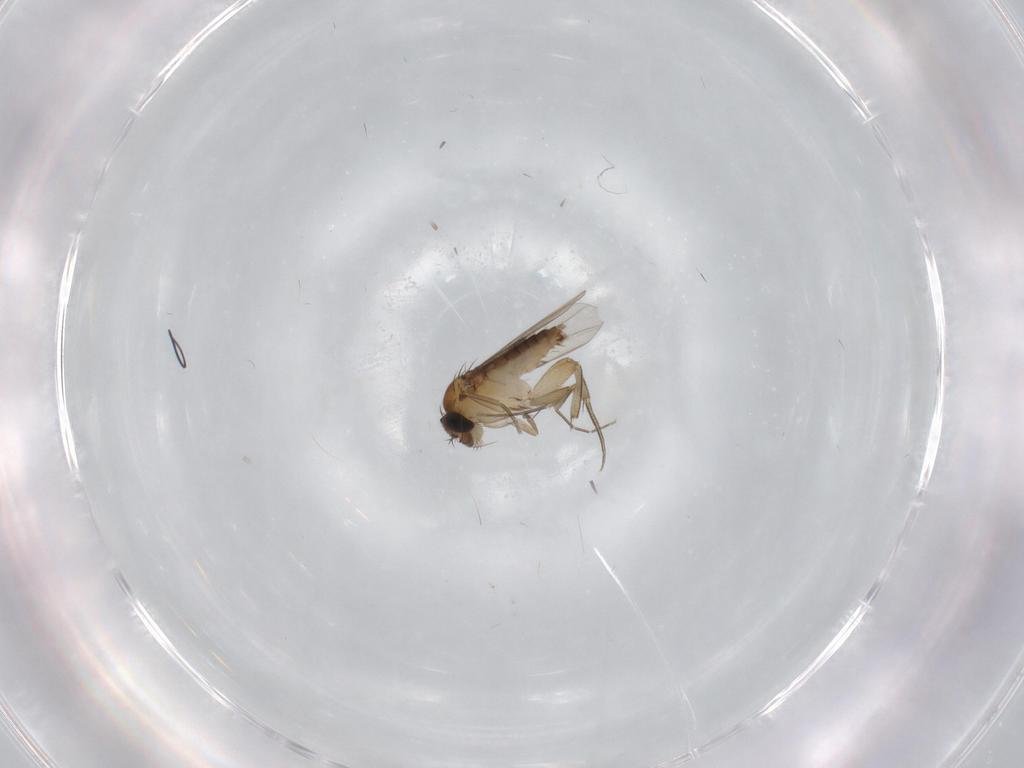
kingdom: Animalia
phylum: Arthropoda
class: Insecta
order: Diptera
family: Phoridae
